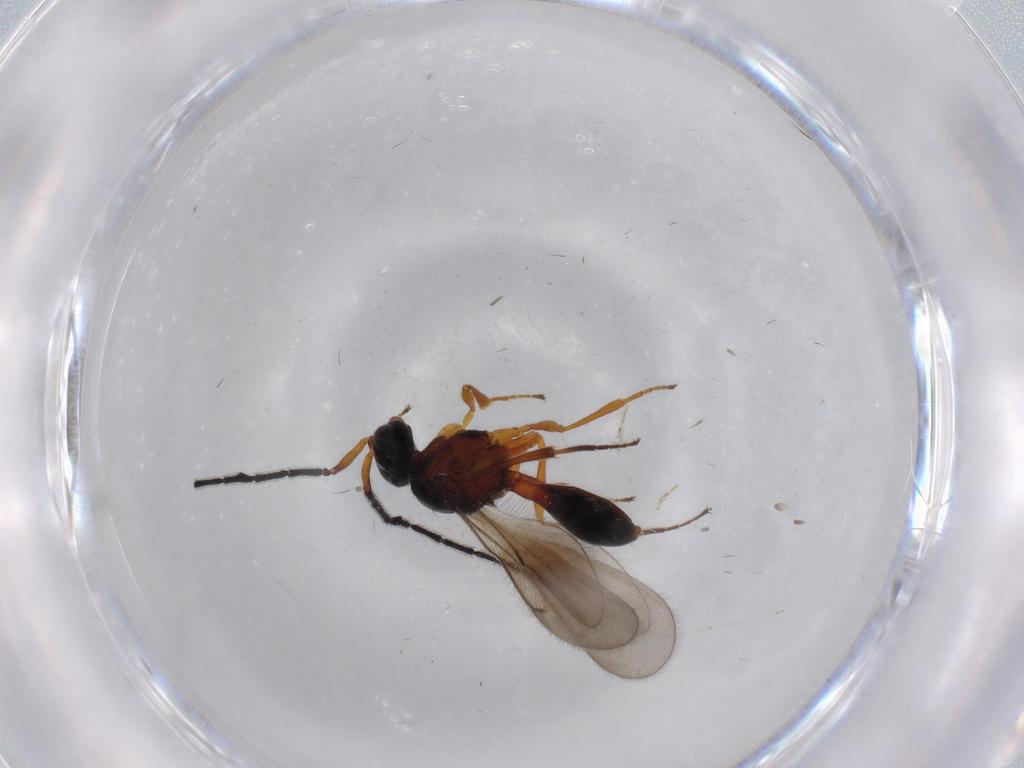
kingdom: Animalia
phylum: Arthropoda
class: Insecta
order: Hymenoptera
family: Scelionidae
